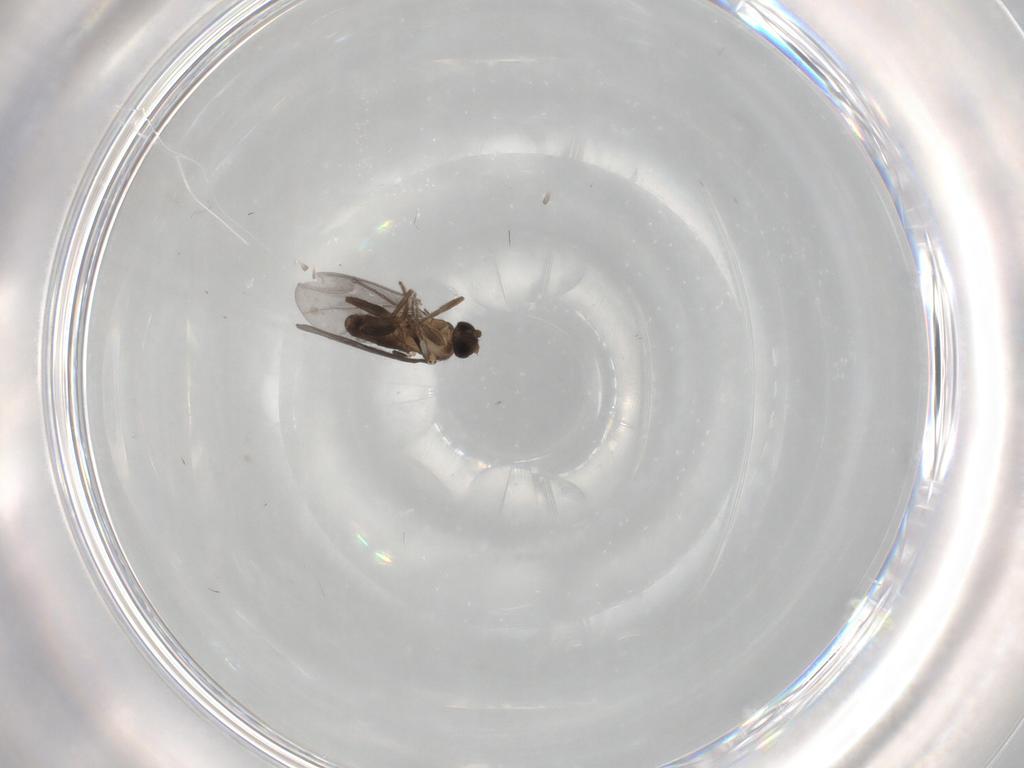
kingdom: Animalia
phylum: Arthropoda
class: Insecta
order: Diptera
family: Phoridae
